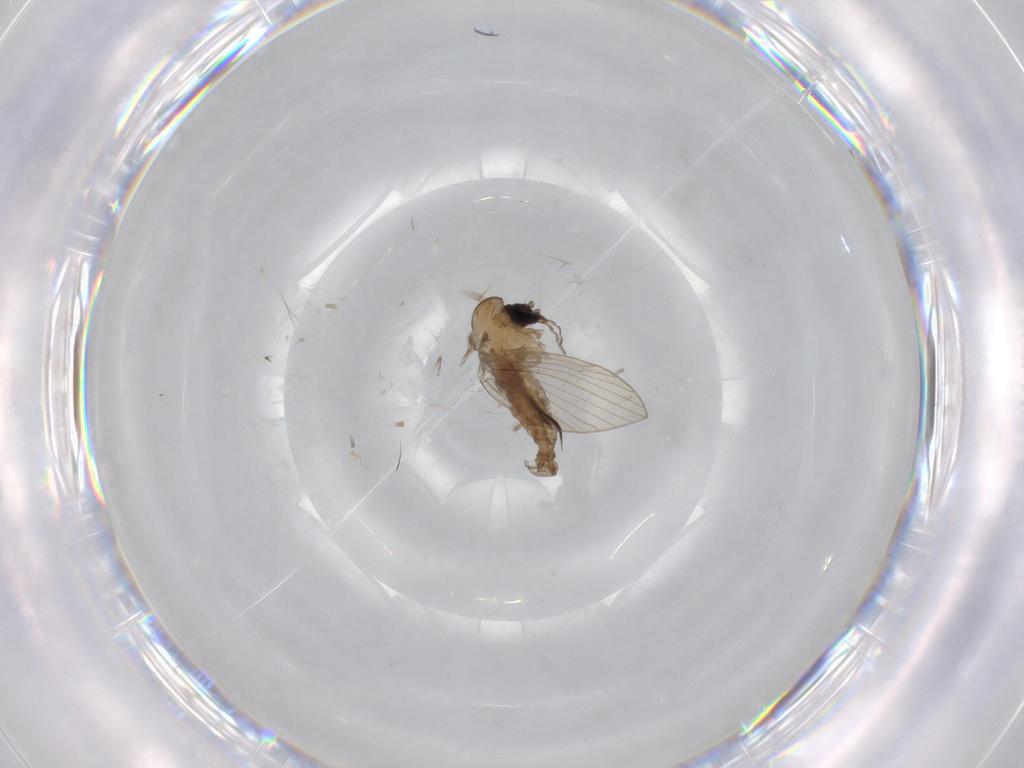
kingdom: Animalia
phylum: Arthropoda
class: Insecta
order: Diptera
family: Psychodidae
